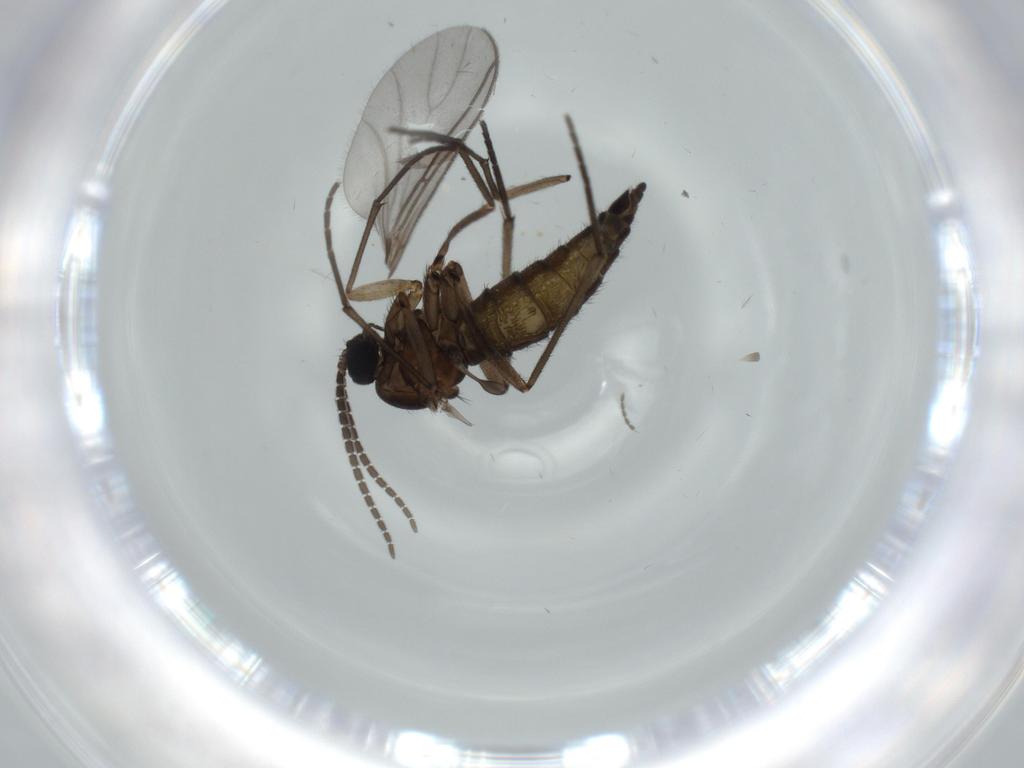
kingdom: Animalia
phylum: Arthropoda
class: Insecta
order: Diptera
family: Sciaridae
